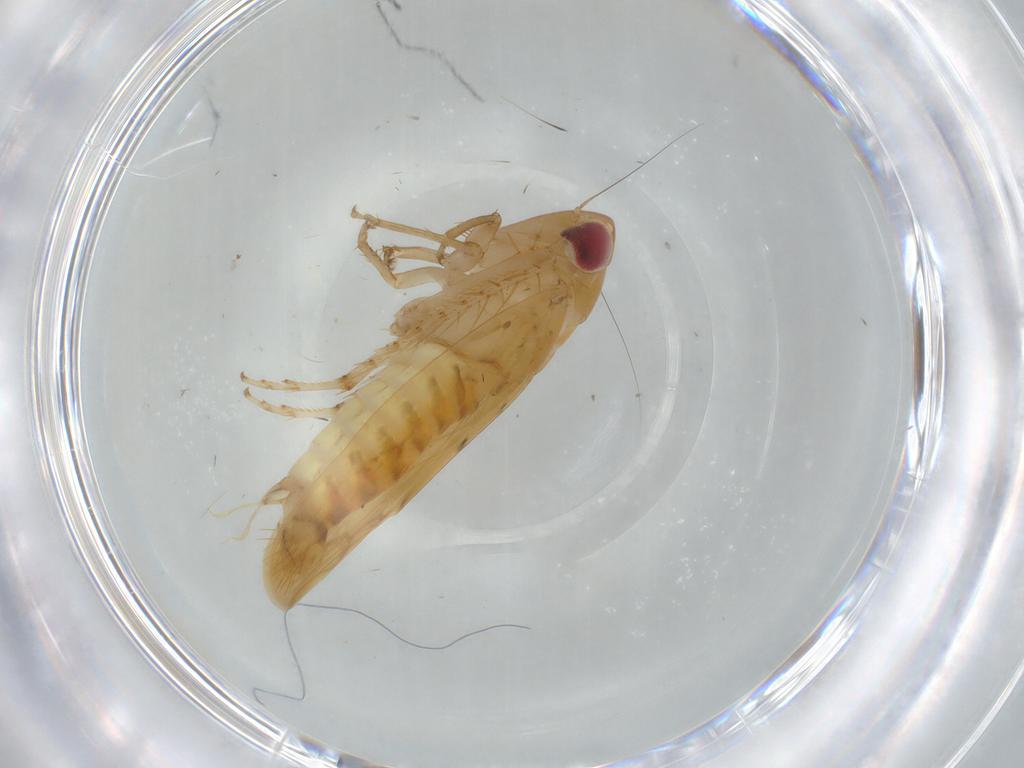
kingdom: Animalia
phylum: Arthropoda
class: Insecta
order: Hemiptera
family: Cicadellidae
